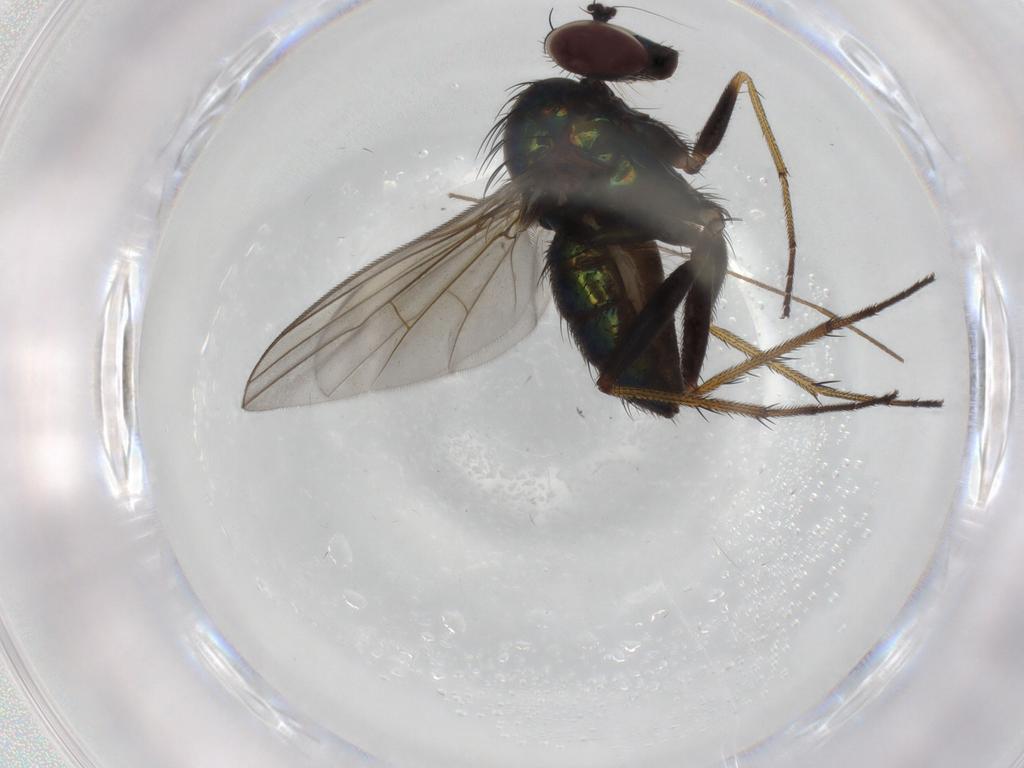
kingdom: Animalia
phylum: Arthropoda
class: Insecta
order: Diptera
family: Dolichopodidae
